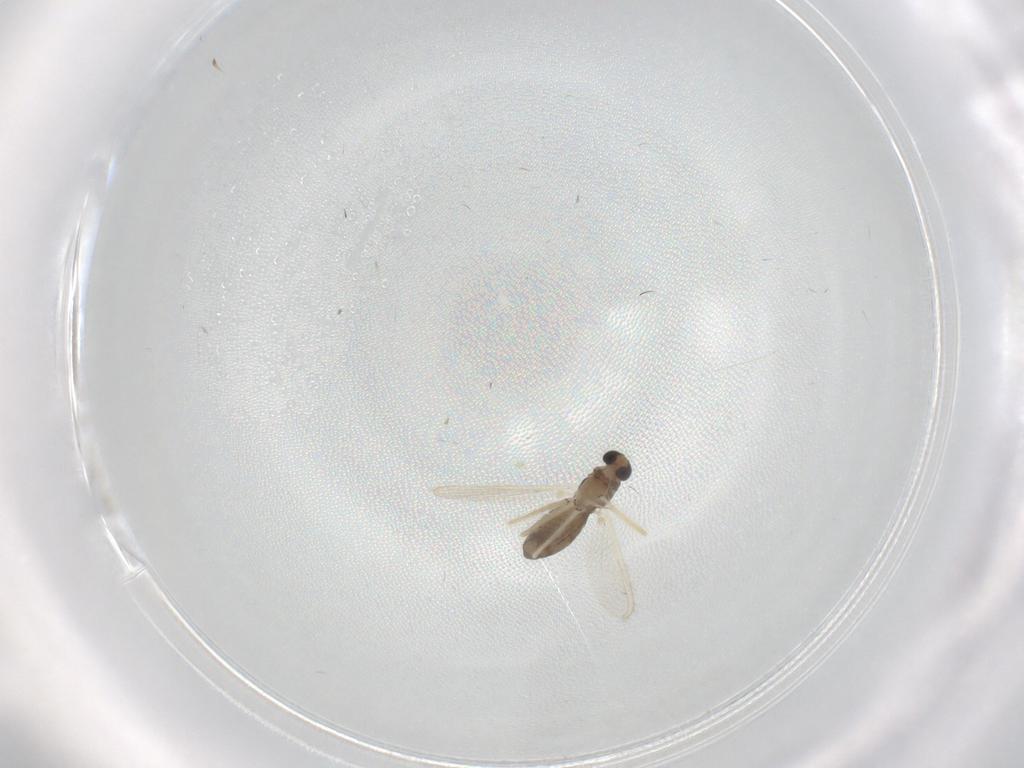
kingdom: Animalia
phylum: Arthropoda
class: Insecta
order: Diptera
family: Chironomidae
